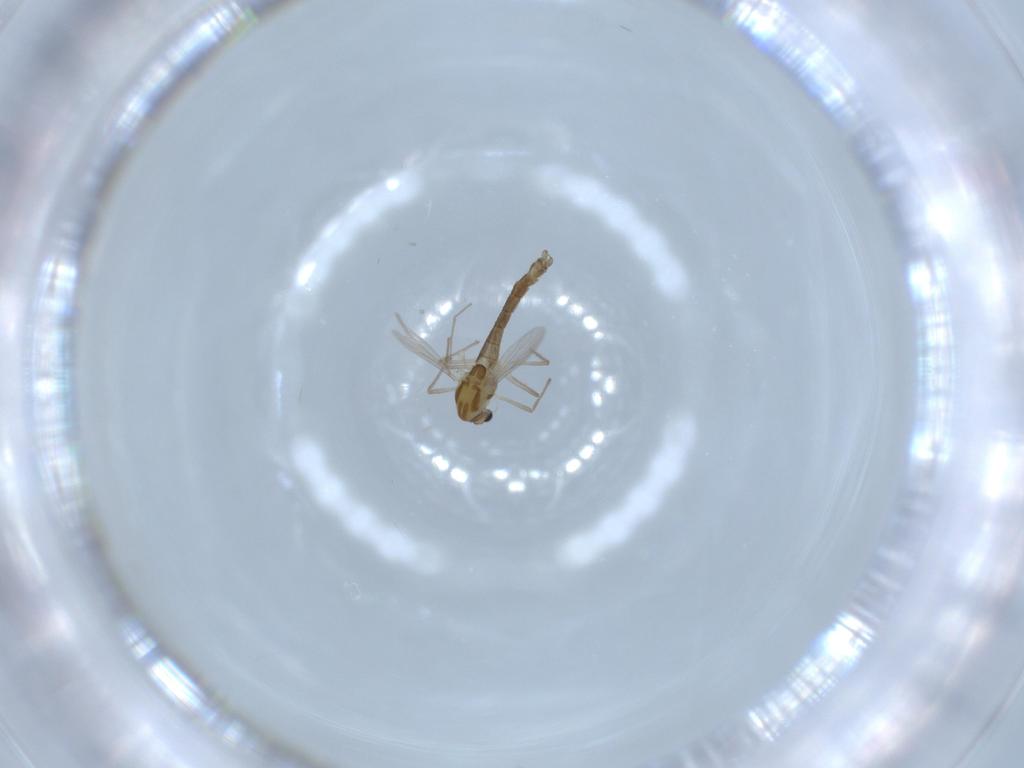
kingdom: Animalia
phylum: Arthropoda
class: Insecta
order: Diptera
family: Chironomidae
